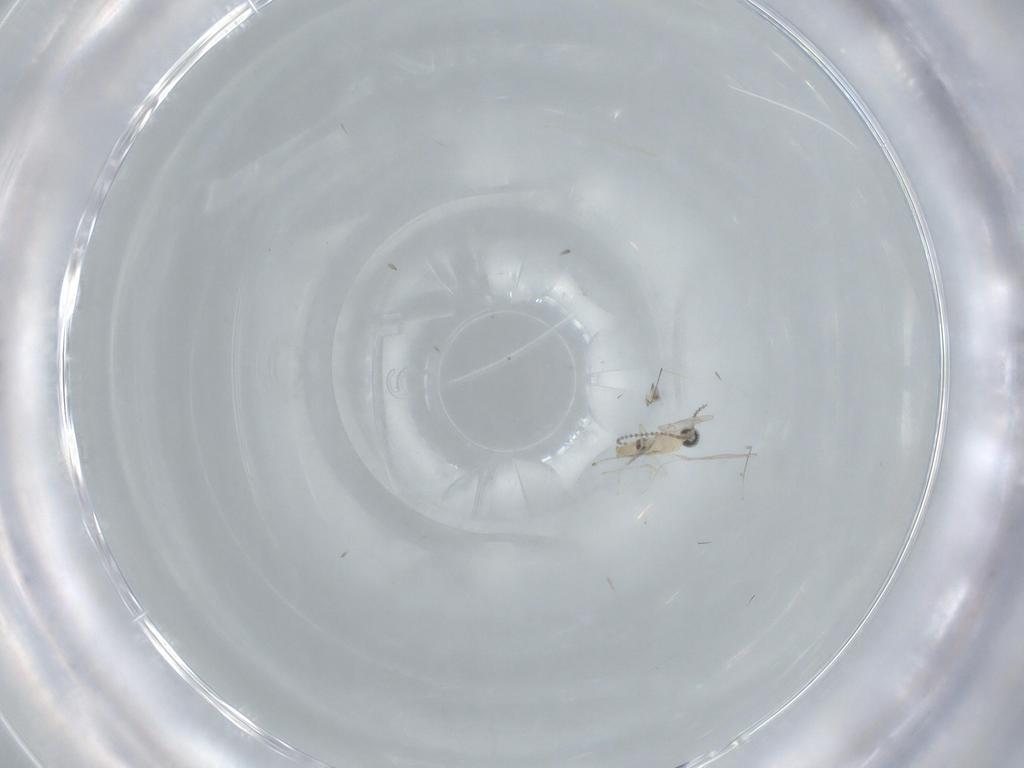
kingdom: Animalia
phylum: Arthropoda
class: Insecta
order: Diptera
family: Cecidomyiidae
